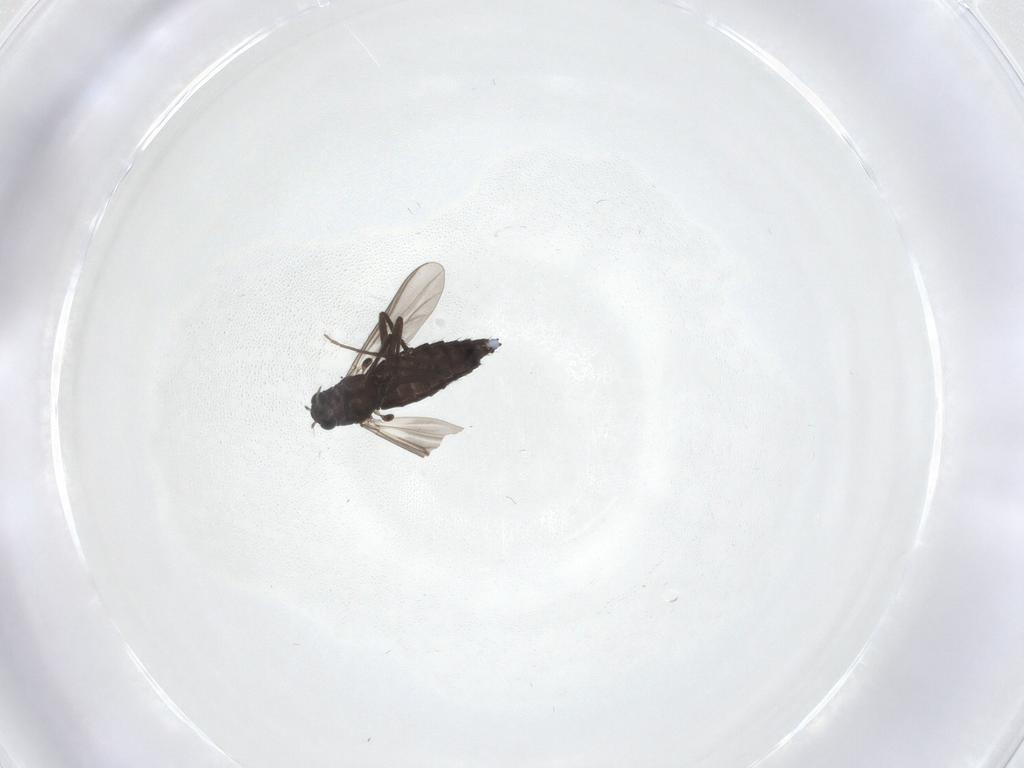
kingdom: Animalia
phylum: Arthropoda
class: Insecta
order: Diptera
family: Chironomidae
